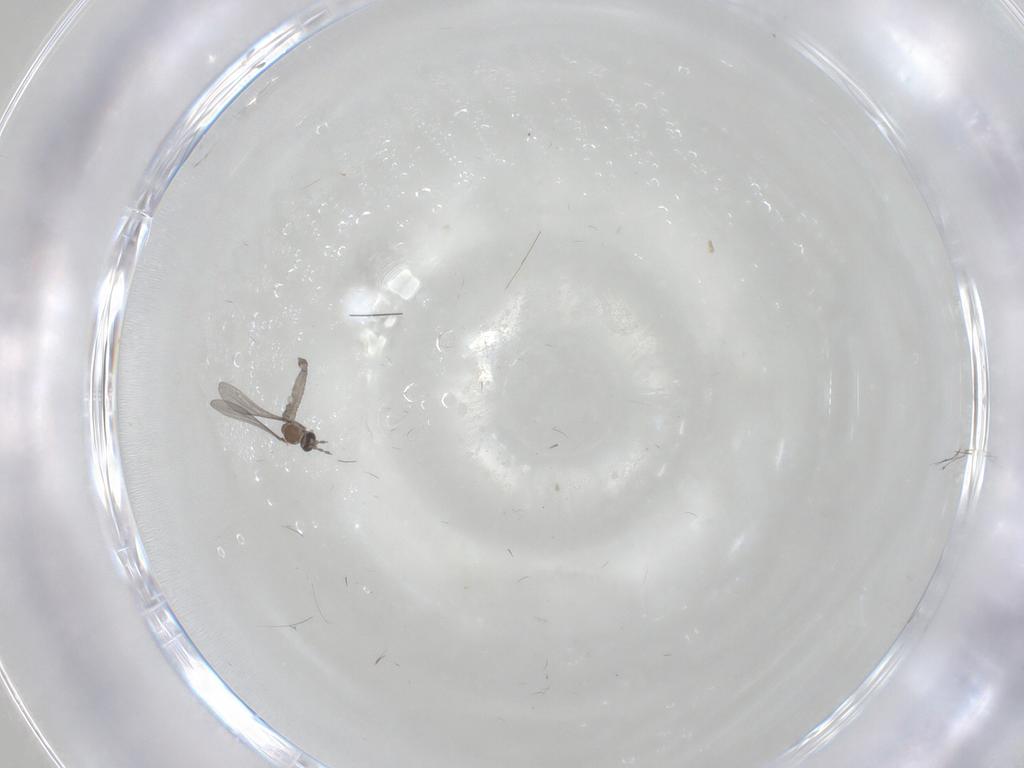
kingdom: Animalia
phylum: Arthropoda
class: Insecta
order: Diptera
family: Cecidomyiidae
